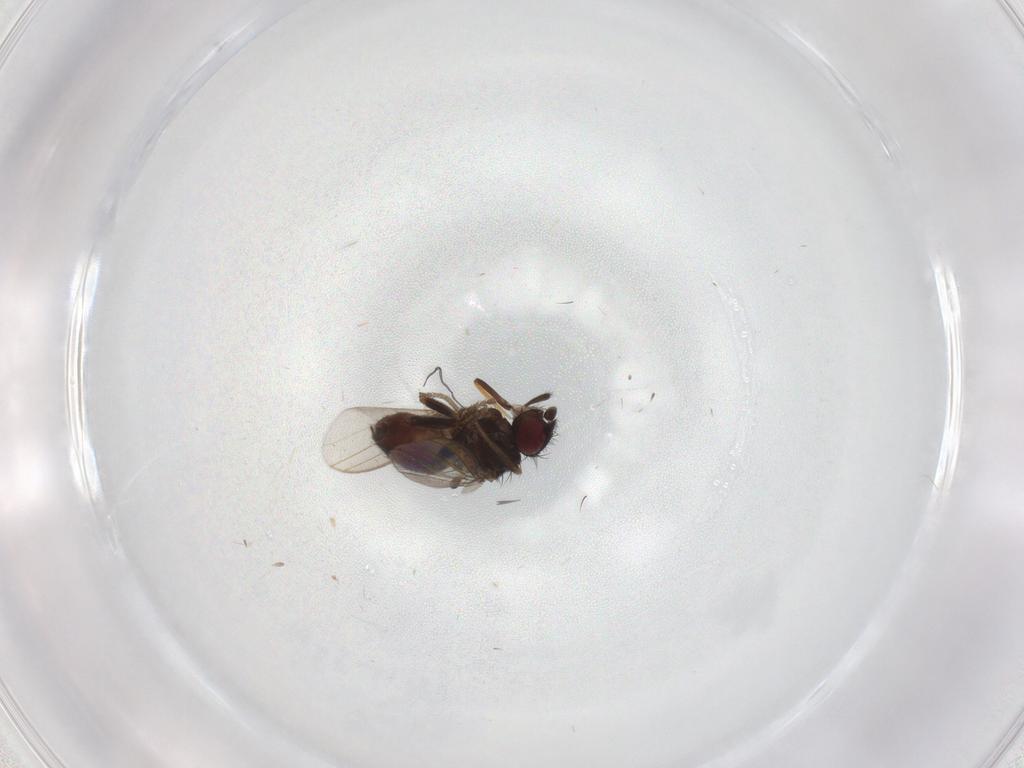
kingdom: Animalia
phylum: Arthropoda
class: Insecta
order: Diptera
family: Milichiidae
